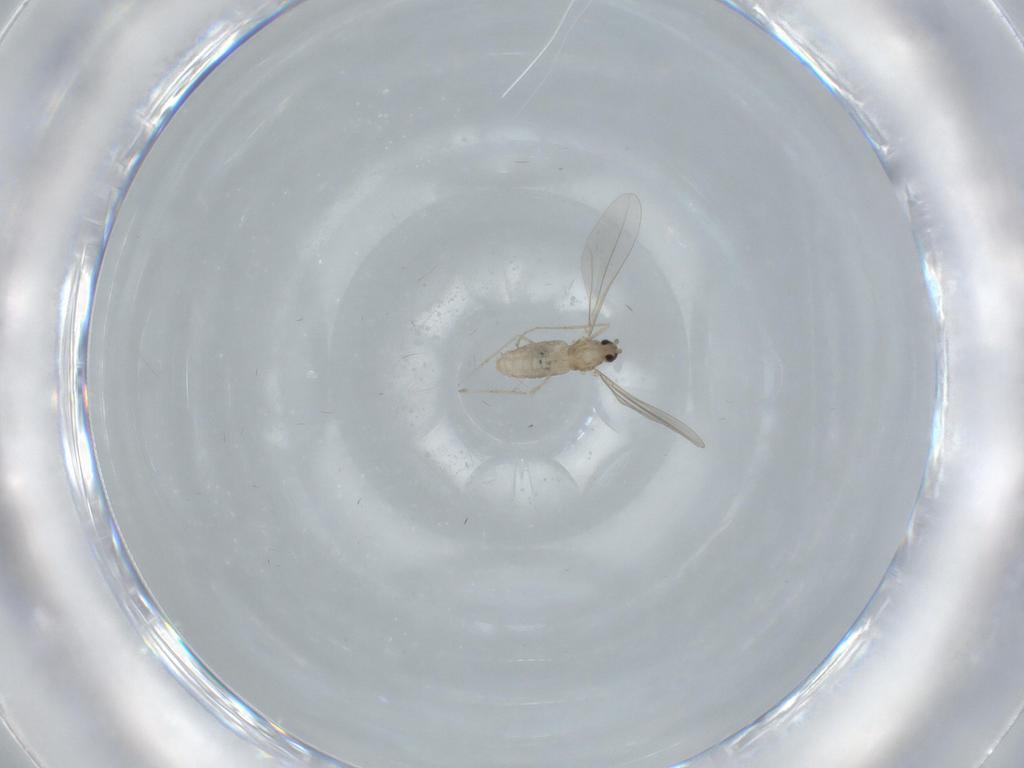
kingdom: Animalia
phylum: Arthropoda
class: Insecta
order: Diptera
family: Cecidomyiidae
